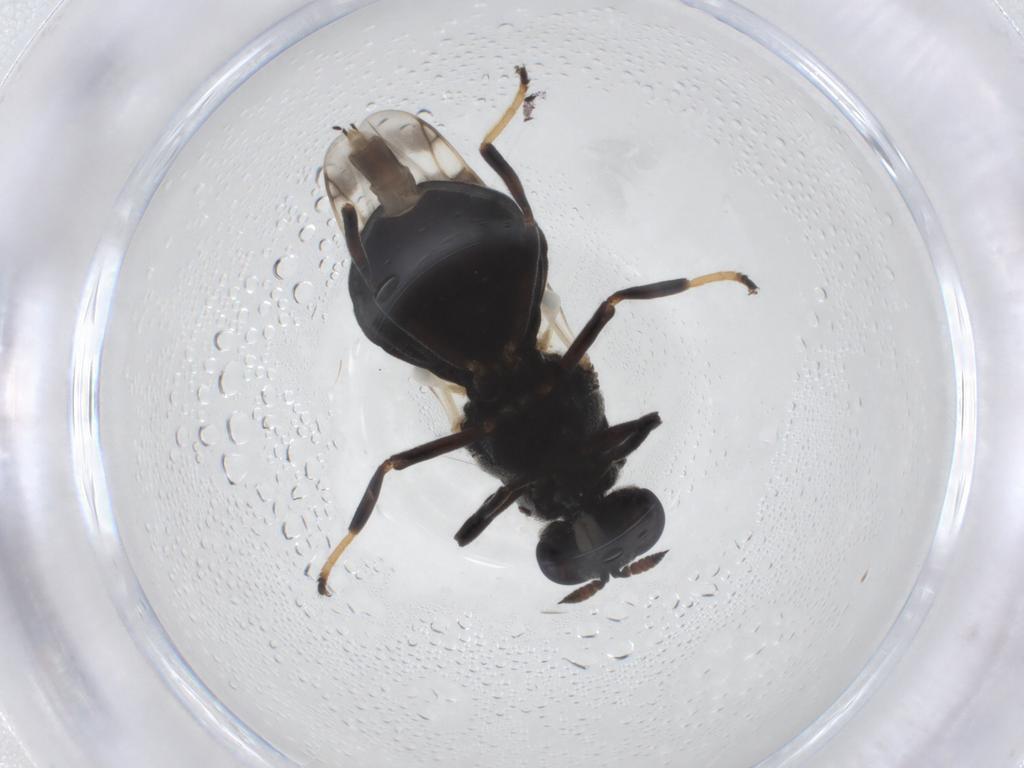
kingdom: Animalia
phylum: Arthropoda
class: Insecta
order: Diptera
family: Stratiomyidae
